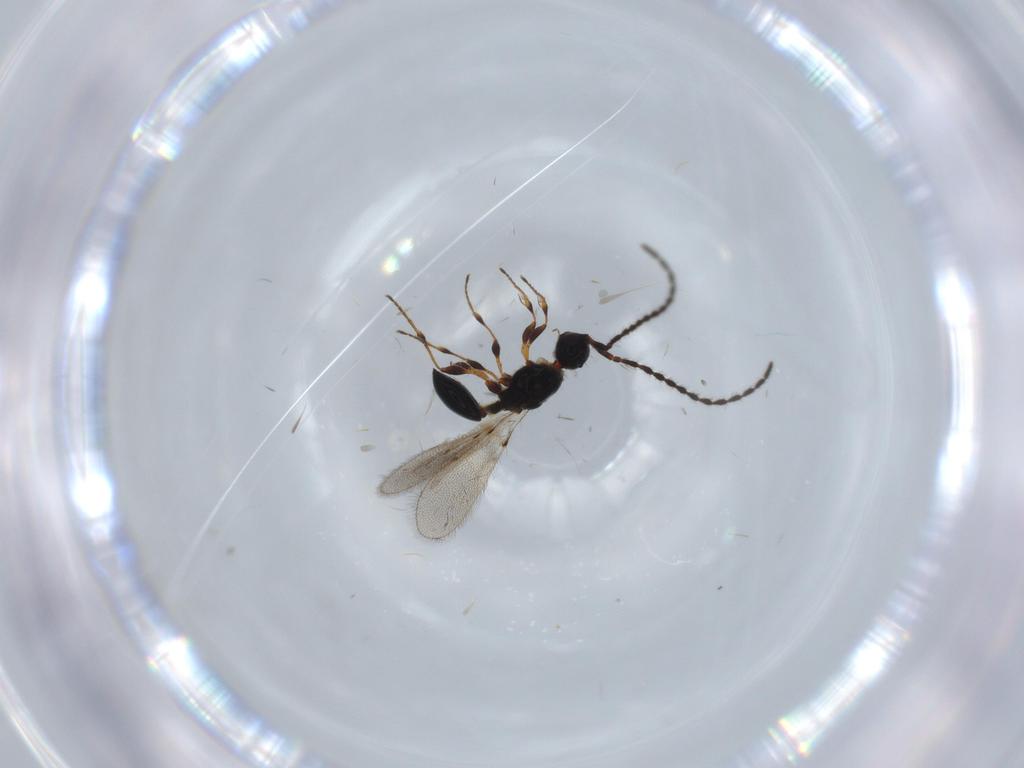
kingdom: Animalia
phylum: Arthropoda
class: Insecta
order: Hymenoptera
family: Diapriidae
